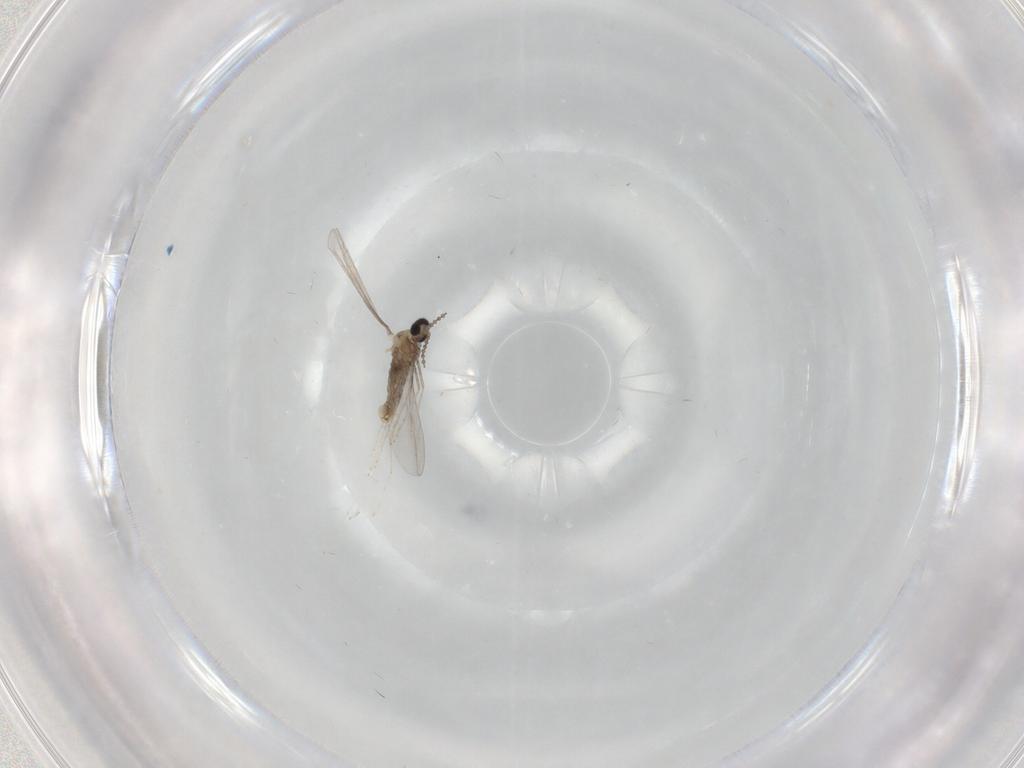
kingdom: Animalia
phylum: Arthropoda
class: Insecta
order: Diptera
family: Cecidomyiidae
